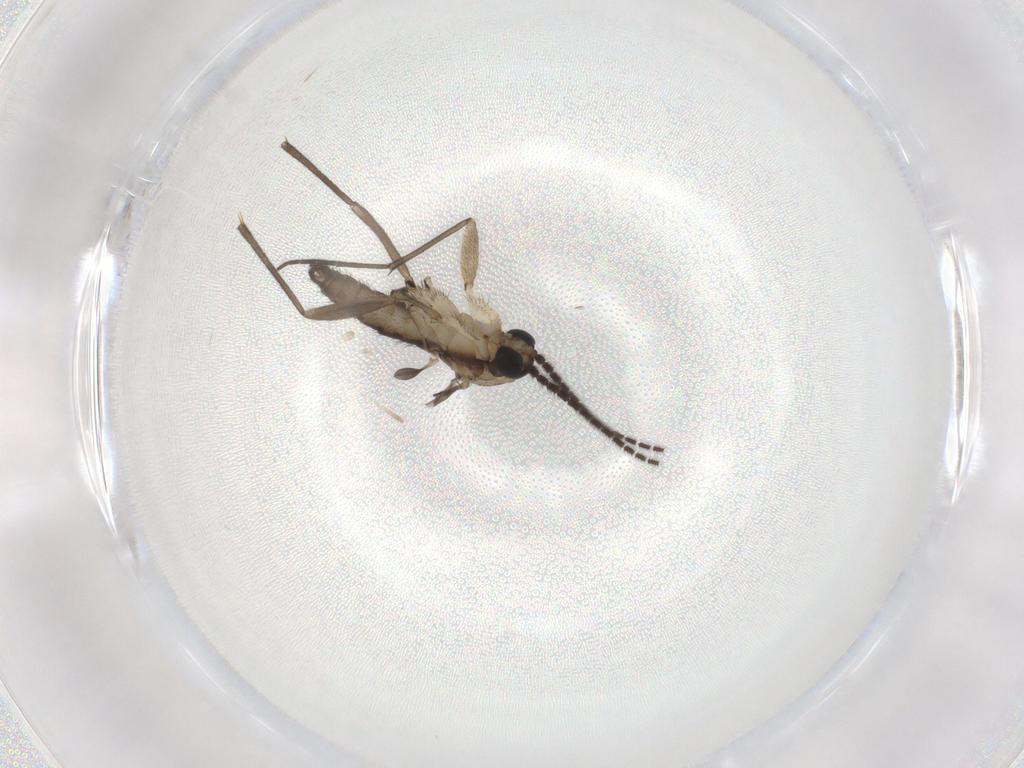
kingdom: Animalia
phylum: Arthropoda
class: Insecta
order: Diptera
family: Sciaridae
